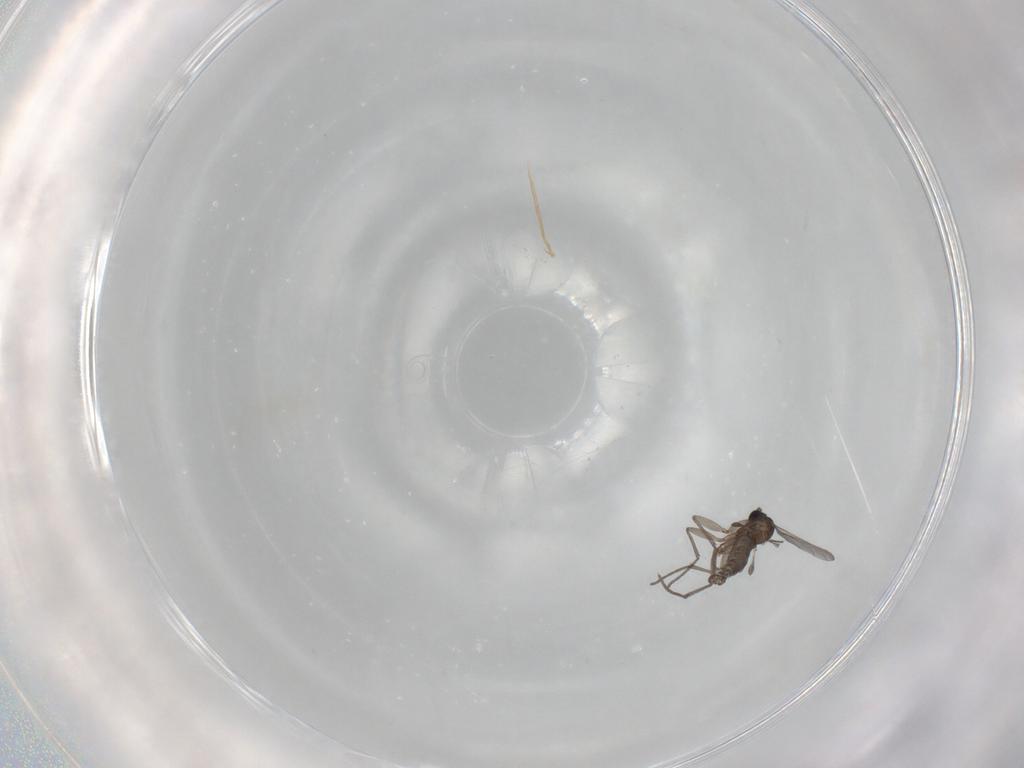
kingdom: Animalia
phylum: Arthropoda
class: Insecta
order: Diptera
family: Sciaridae
